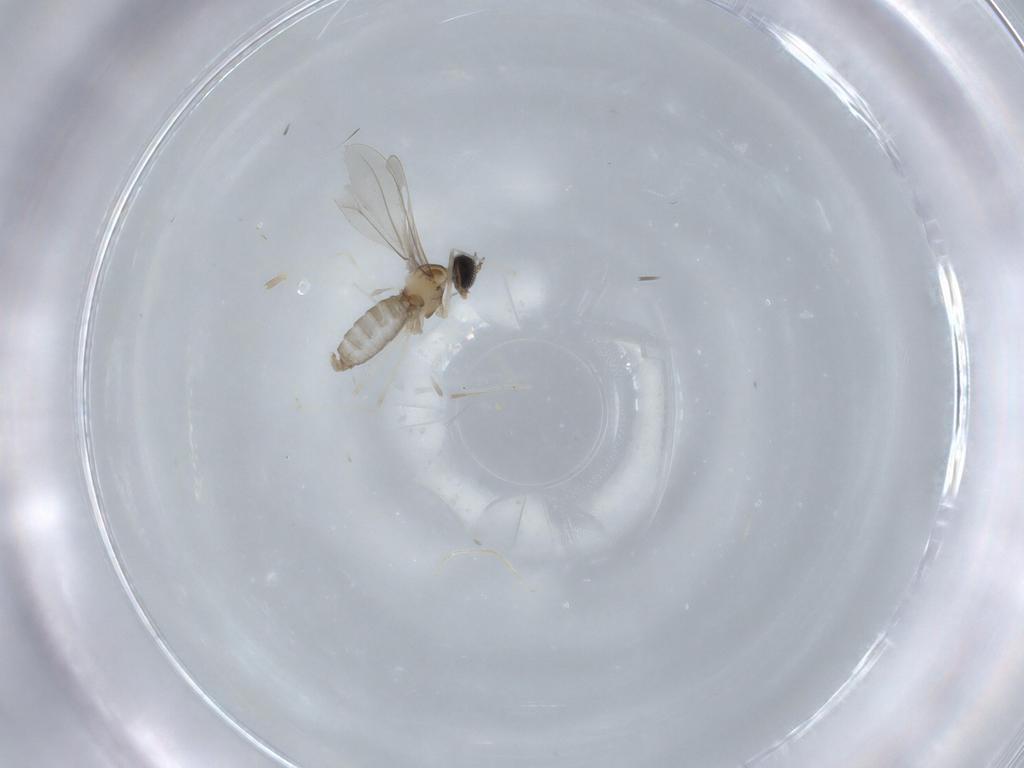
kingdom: Animalia
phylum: Arthropoda
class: Insecta
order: Diptera
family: Cecidomyiidae
